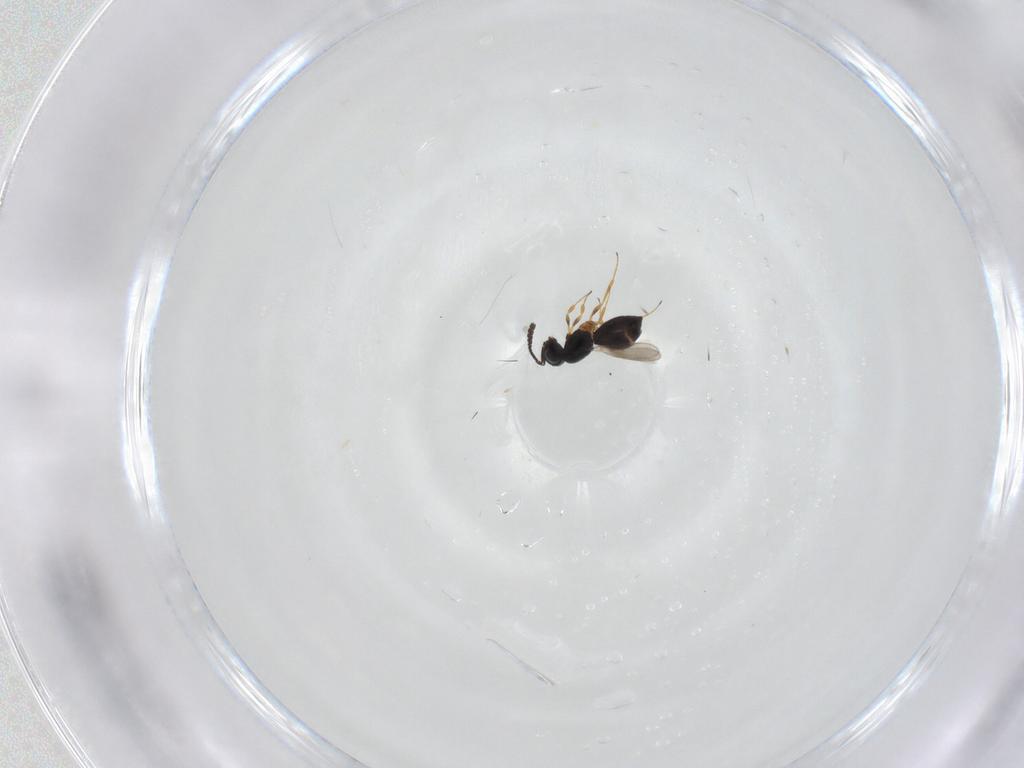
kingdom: Animalia
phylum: Arthropoda
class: Insecta
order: Hymenoptera
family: Scelionidae
